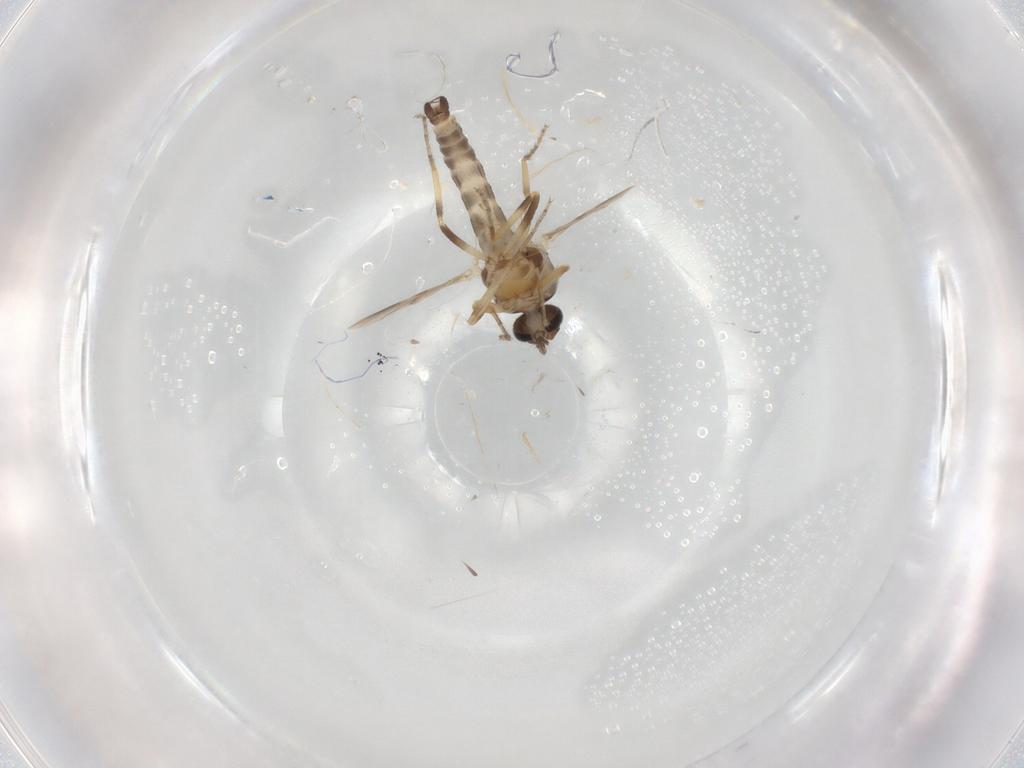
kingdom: Animalia
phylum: Arthropoda
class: Insecta
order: Diptera
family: Ceratopogonidae
